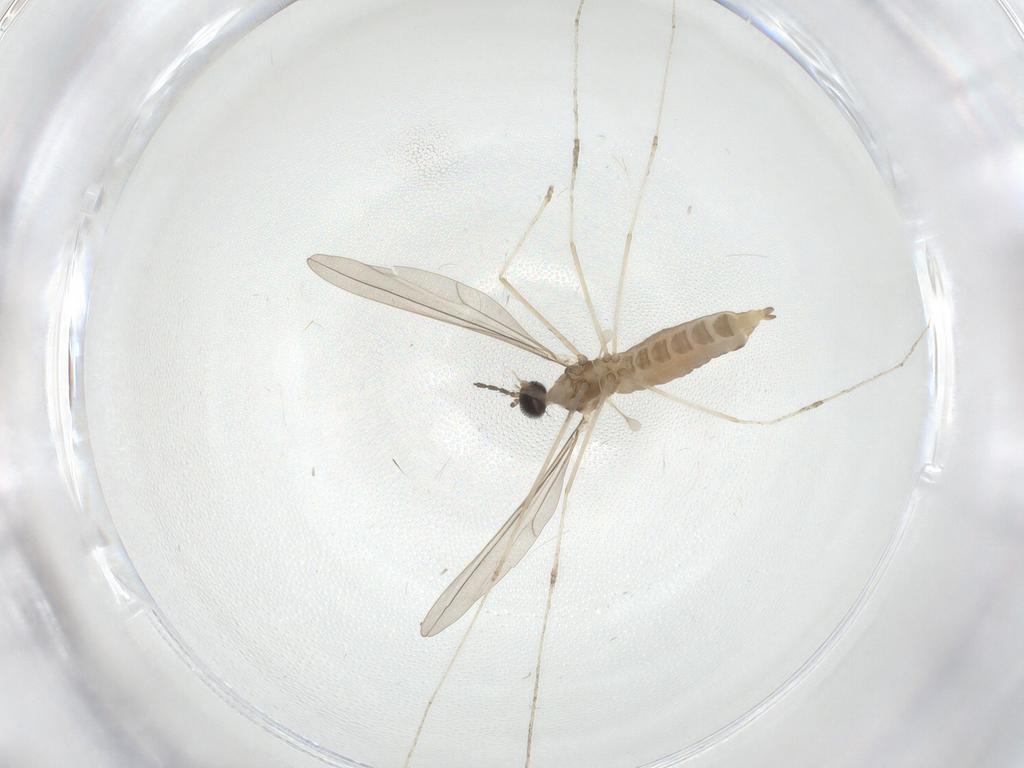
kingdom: Animalia
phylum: Arthropoda
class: Insecta
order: Diptera
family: Cecidomyiidae
